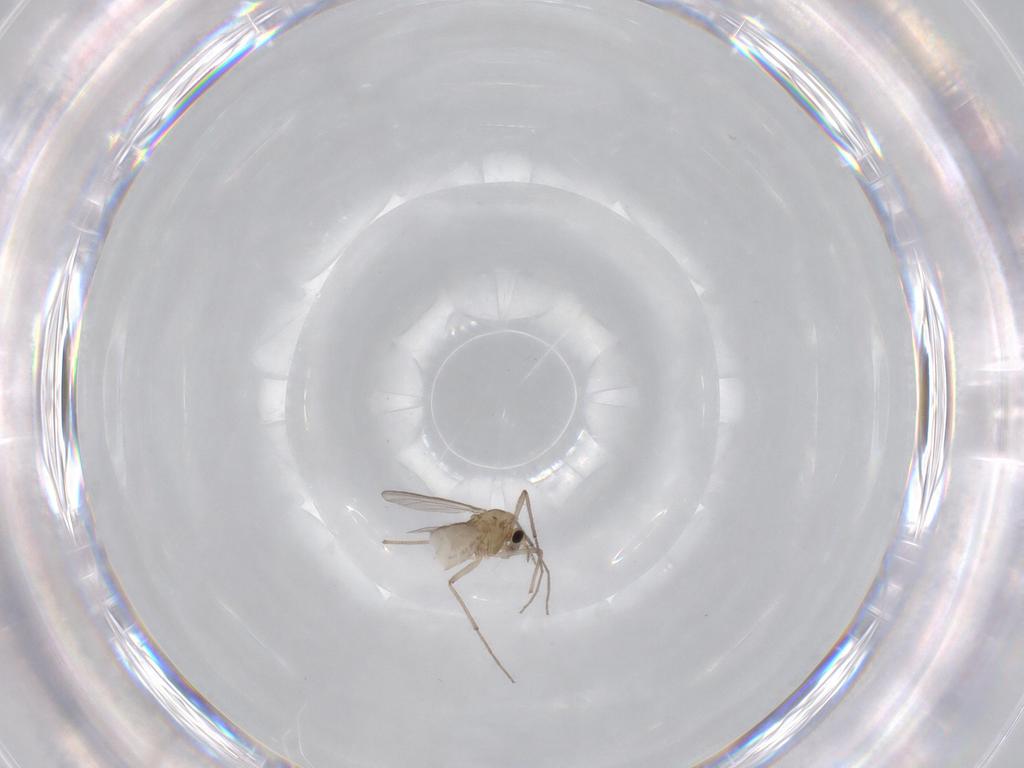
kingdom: Animalia
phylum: Arthropoda
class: Insecta
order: Diptera
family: Chironomidae
